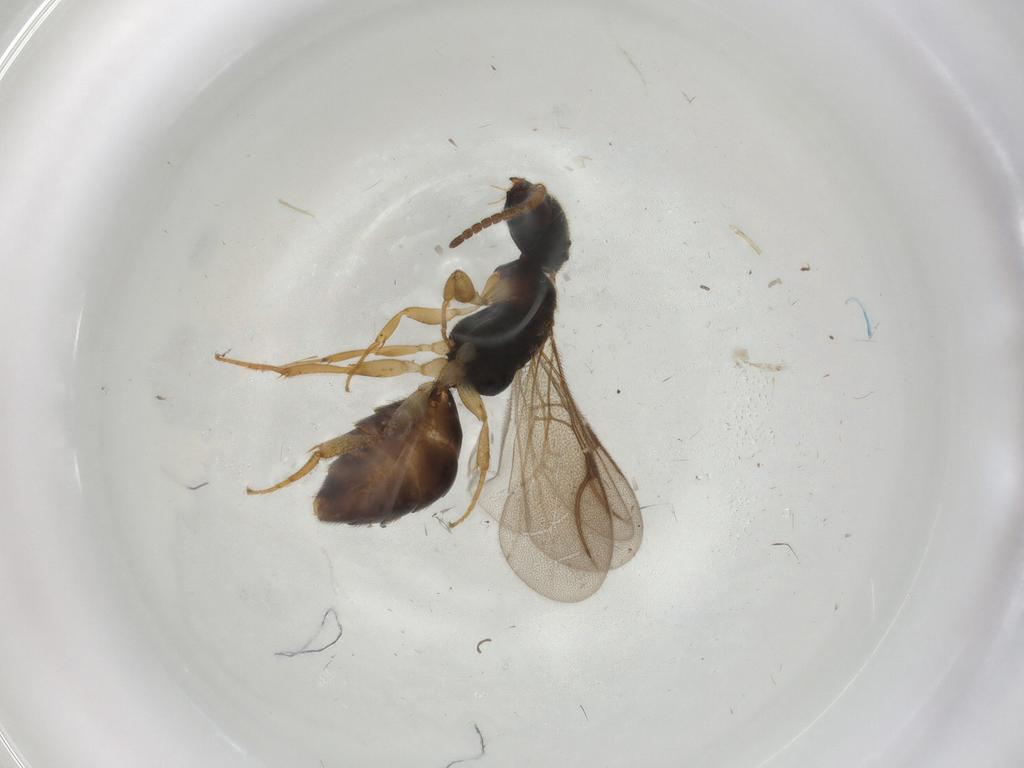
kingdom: Animalia
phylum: Arthropoda
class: Insecta
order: Hymenoptera
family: Bethylidae
